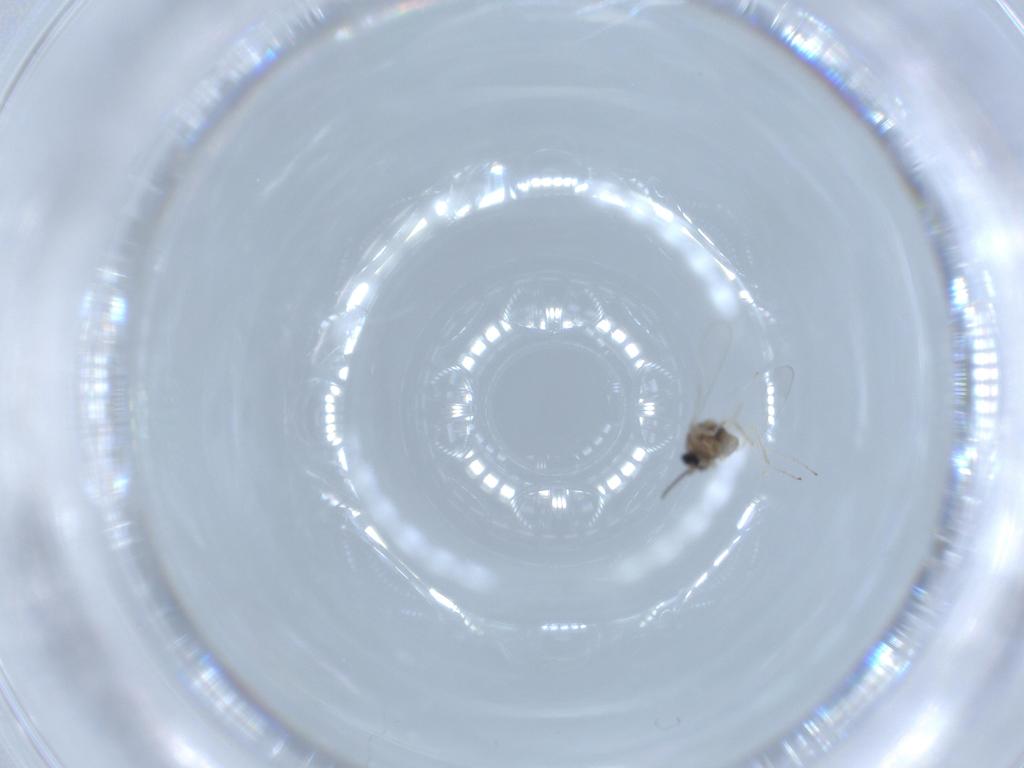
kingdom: Animalia
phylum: Arthropoda
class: Insecta
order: Diptera
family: Cecidomyiidae
